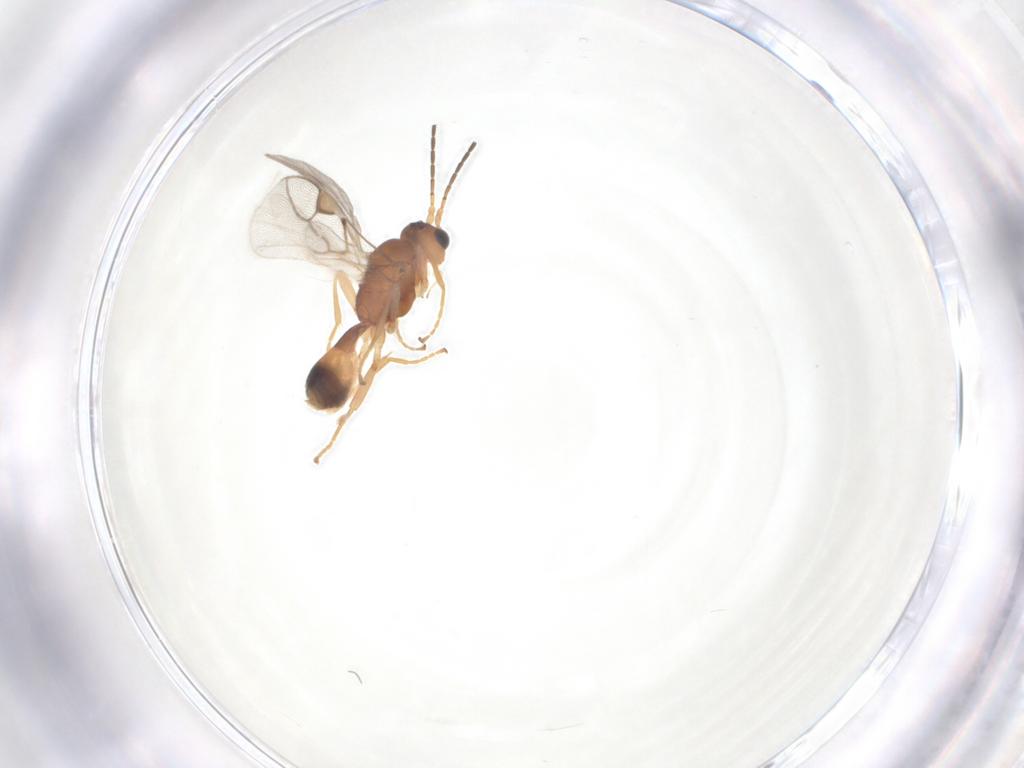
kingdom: Animalia
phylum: Arthropoda
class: Insecta
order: Hymenoptera
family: Braconidae
